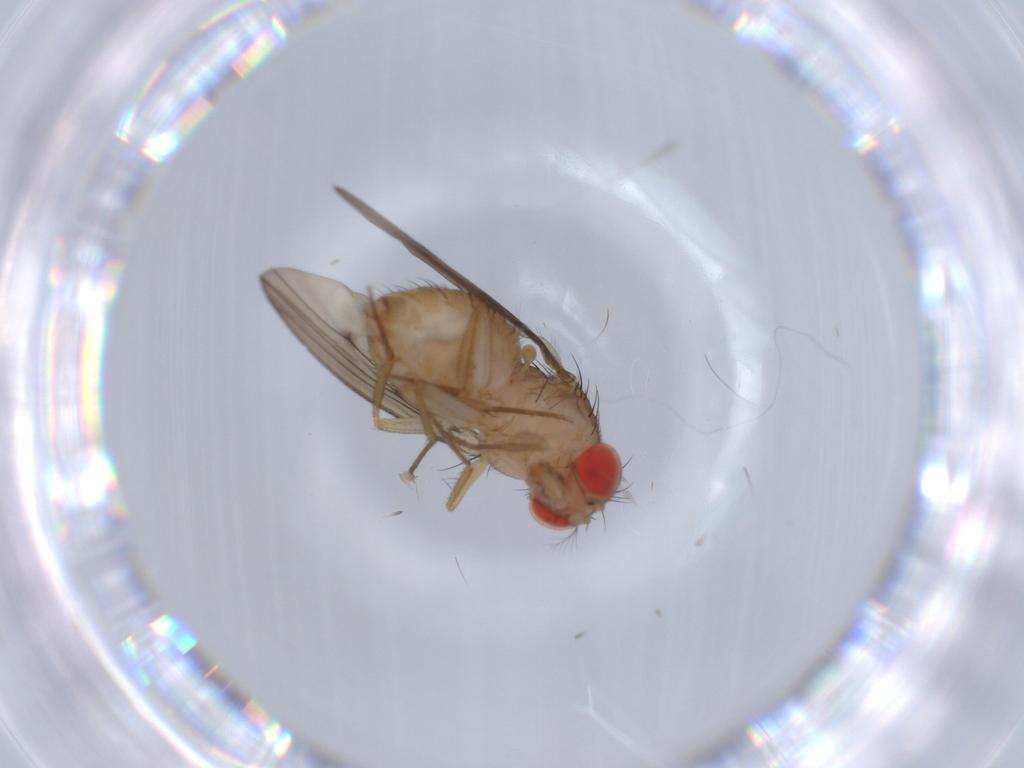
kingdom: Animalia
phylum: Arthropoda
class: Insecta
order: Diptera
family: Drosophilidae
